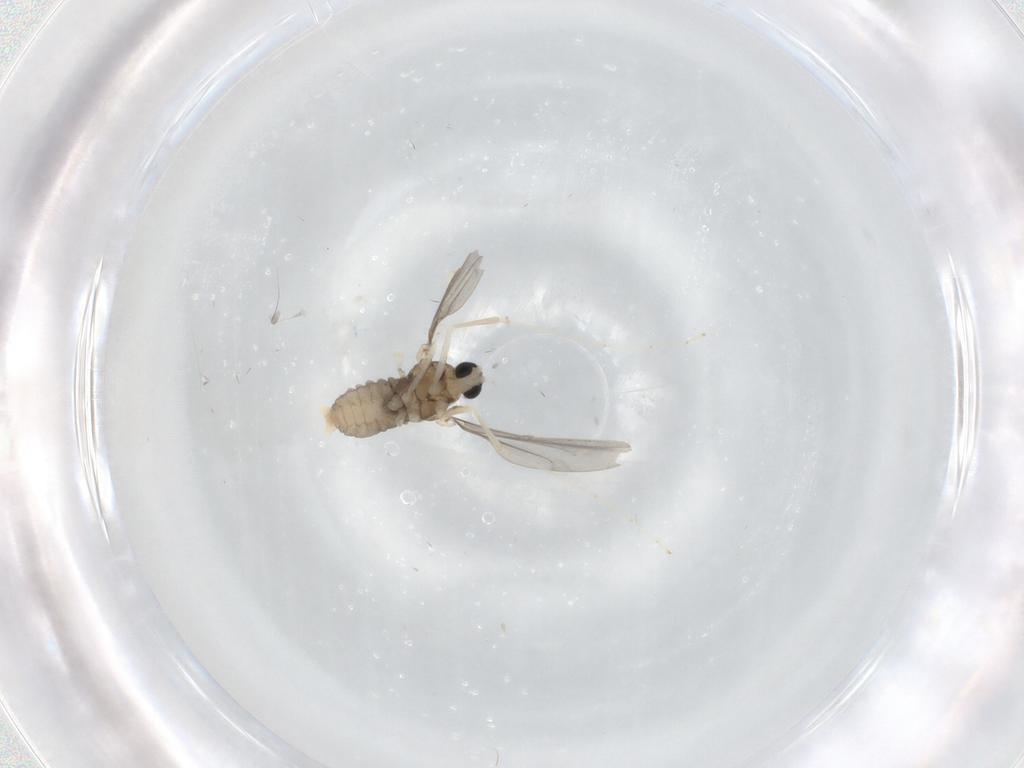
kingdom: Animalia
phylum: Arthropoda
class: Insecta
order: Diptera
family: Cecidomyiidae
